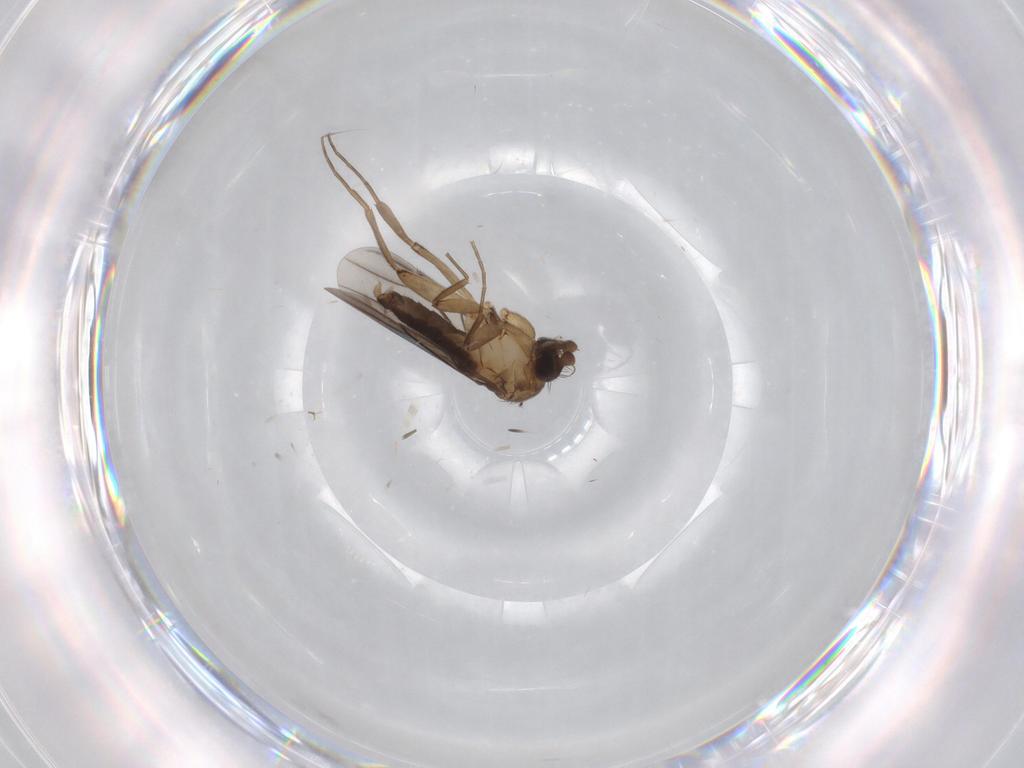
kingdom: Animalia
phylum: Arthropoda
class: Insecta
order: Diptera
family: Phoridae
